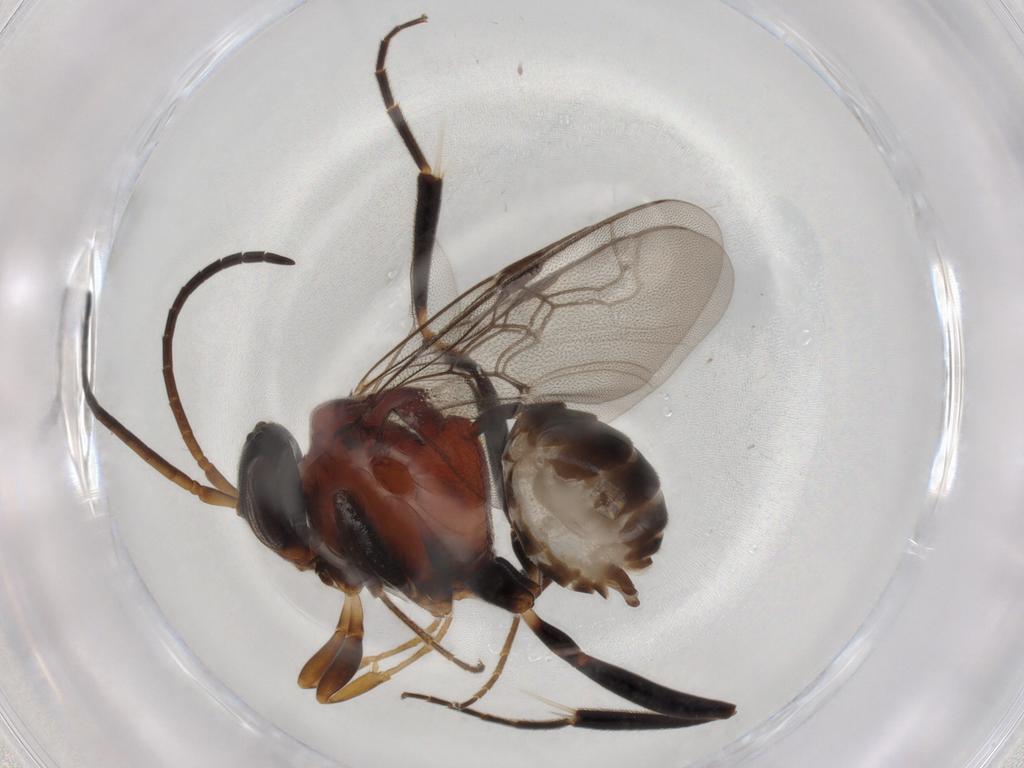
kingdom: Animalia
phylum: Arthropoda
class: Insecta
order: Hymenoptera
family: Evaniidae
